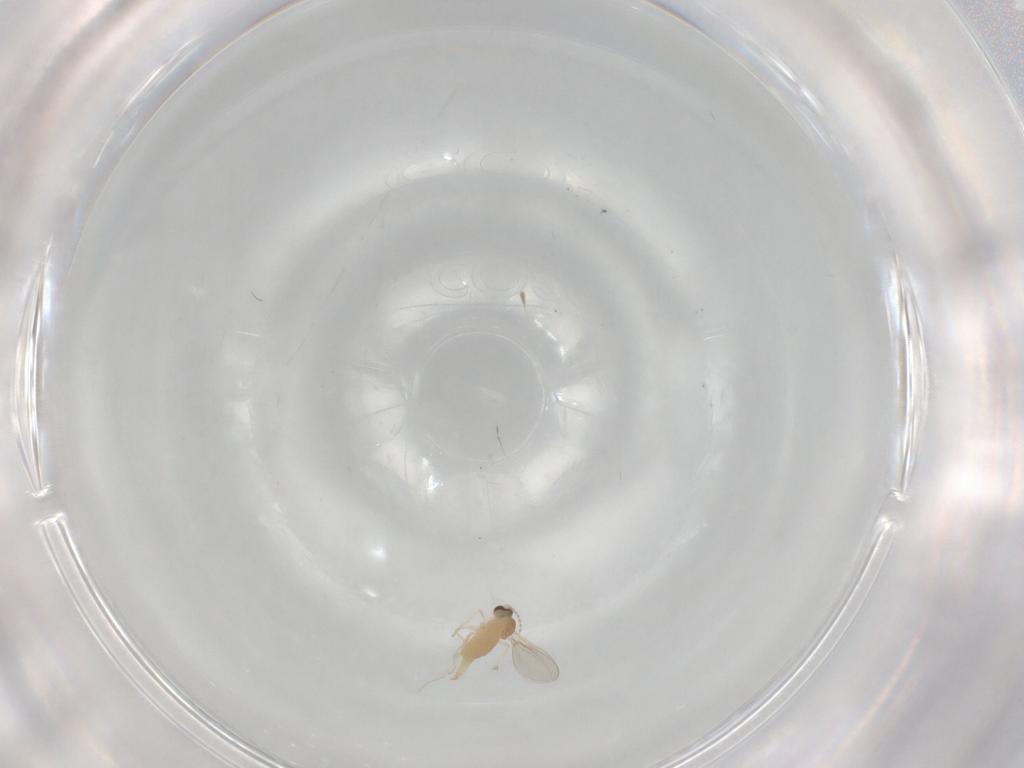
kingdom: Animalia
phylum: Arthropoda
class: Insecta
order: Diptera
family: Cecidomyiidae
